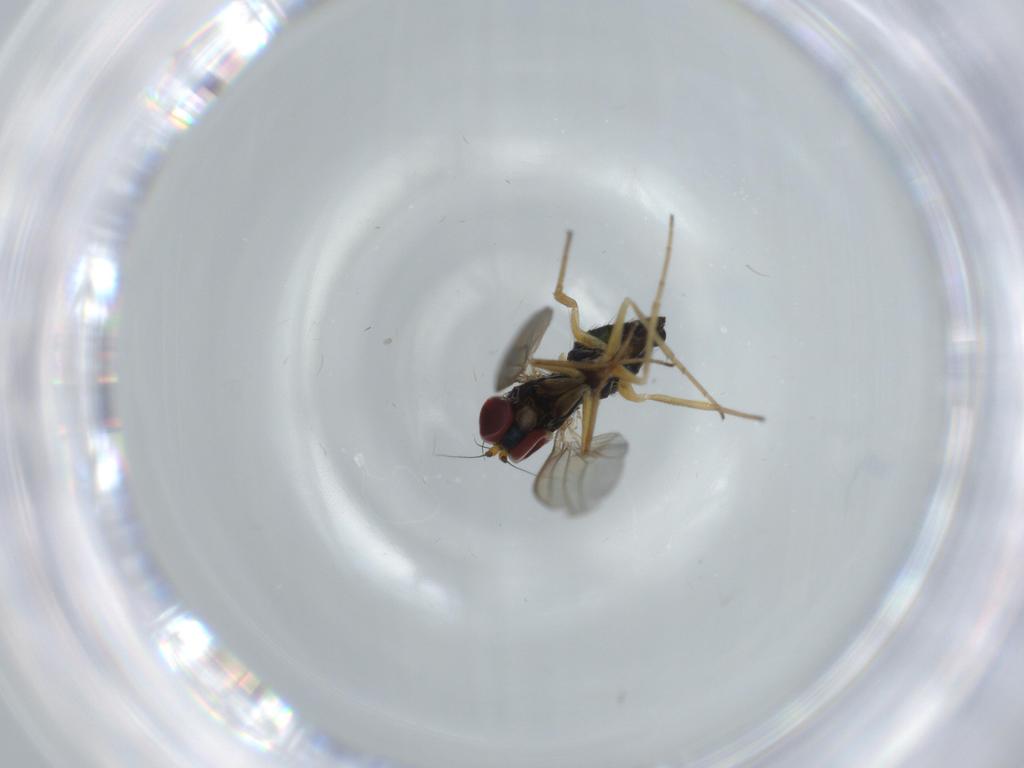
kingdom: Animalia
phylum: Arthropoda
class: Insecta
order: Diptera
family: Dolichopodidae
